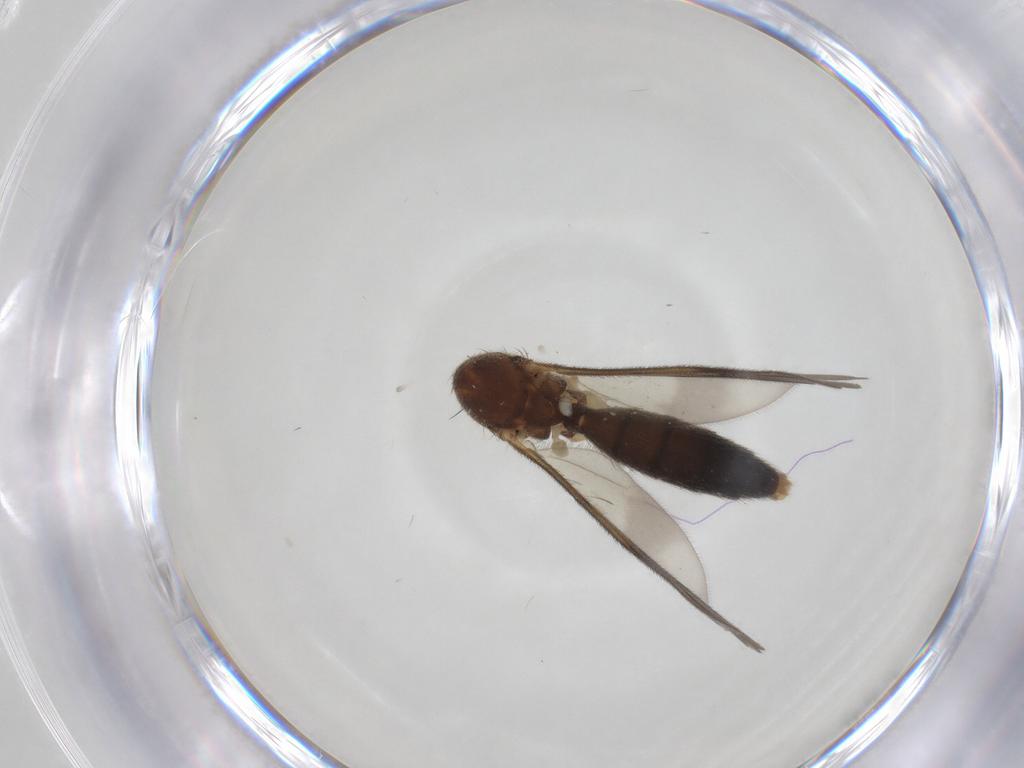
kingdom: Animalia
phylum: Arthropoda
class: Insecta
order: Diptera
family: Mycetophilidae
